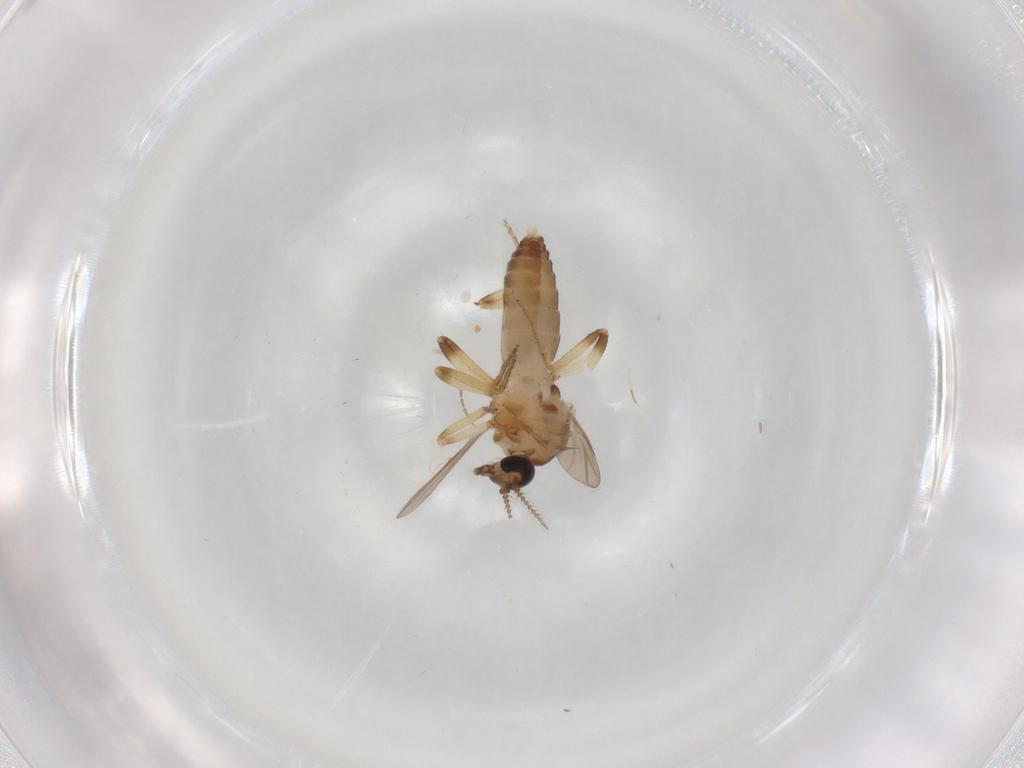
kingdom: Animalia
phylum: Arthropoda
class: Insecta
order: Diptera
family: Ceratopogonidae
